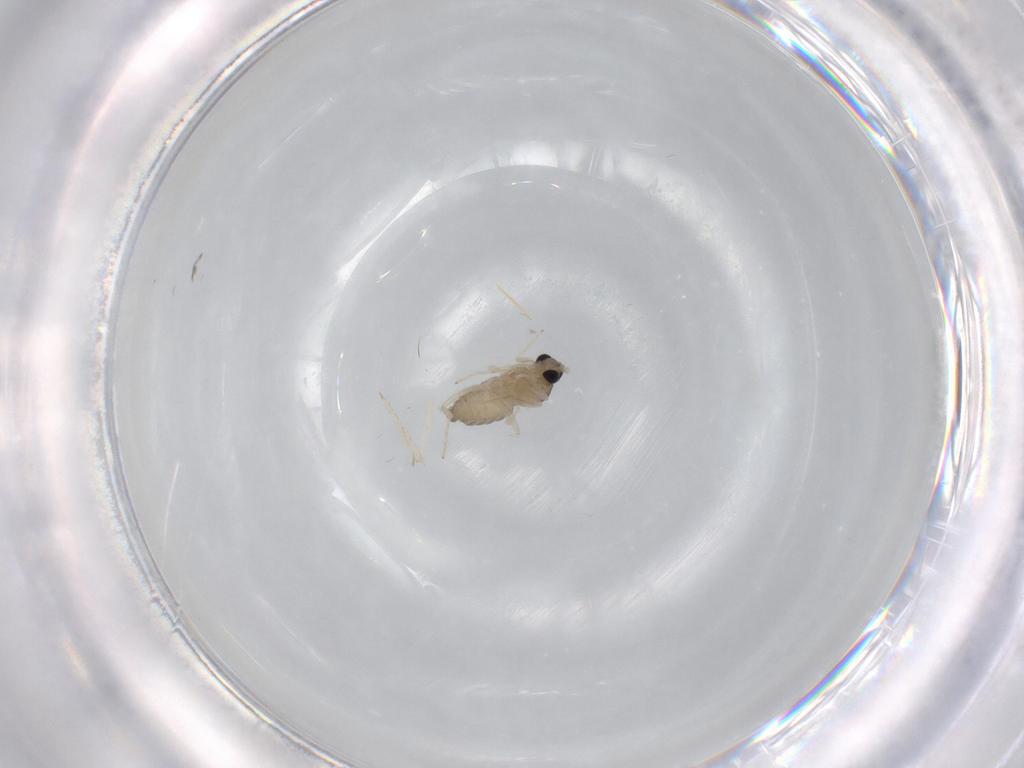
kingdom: Animalia
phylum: Arthropoda
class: Insecta
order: Diptera
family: Cecidomyiidae
